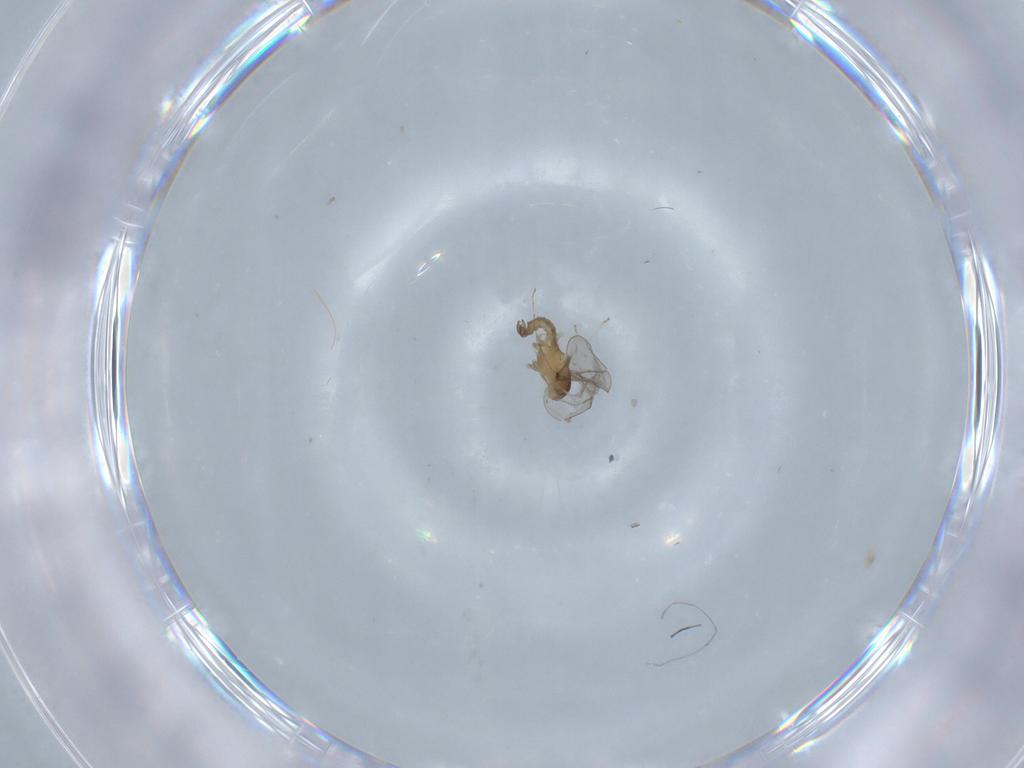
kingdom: Animalia
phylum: Arthropoda
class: Insecta
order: Diptera
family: Cecidomyiidae
